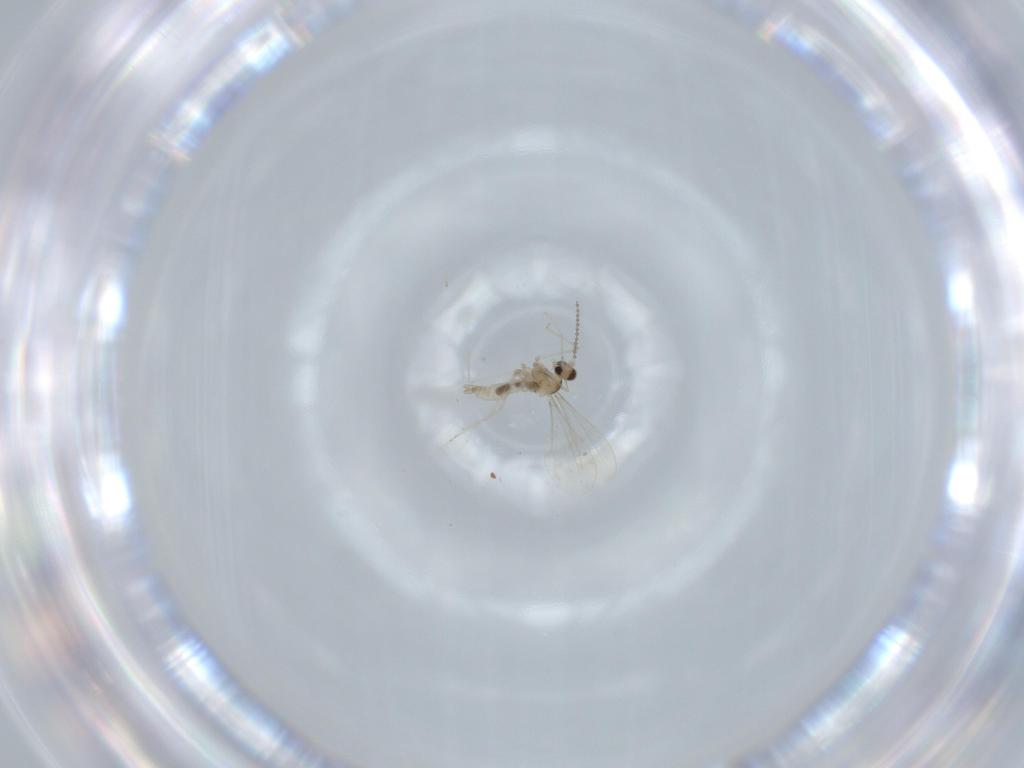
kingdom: Animalia
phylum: Arthropoda
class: Insecta
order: Diptera
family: Cecidomyiidae
